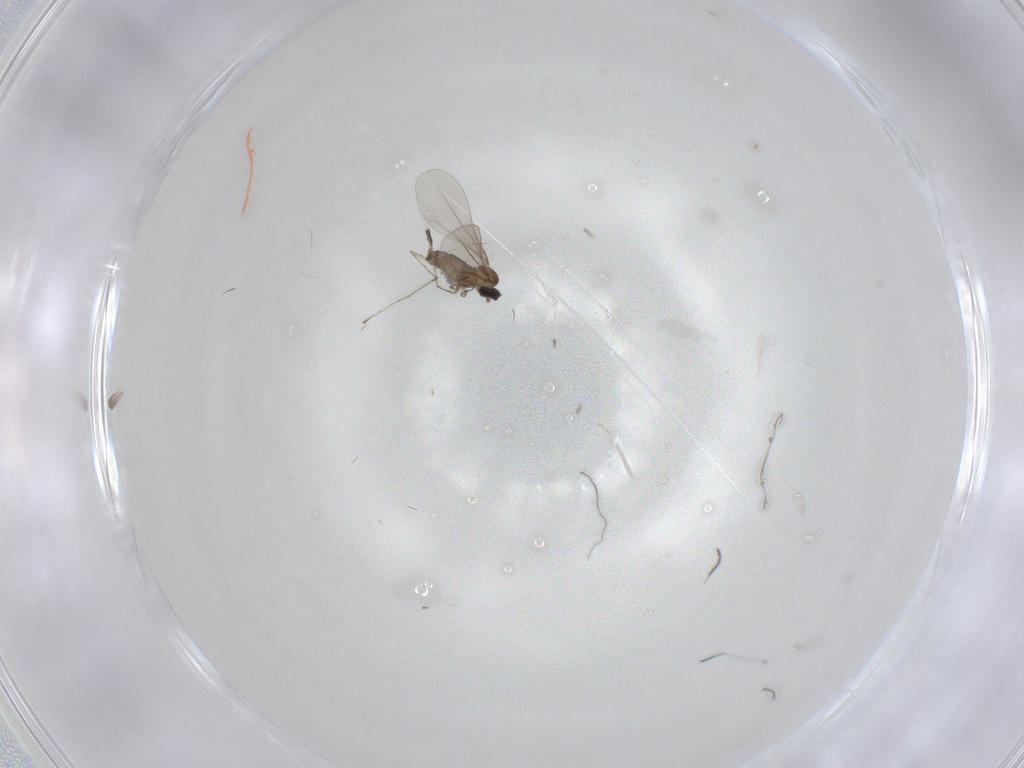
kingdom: Animalia
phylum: Arthropoda
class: Insecta
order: Diptera
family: Cecidomyiidae
